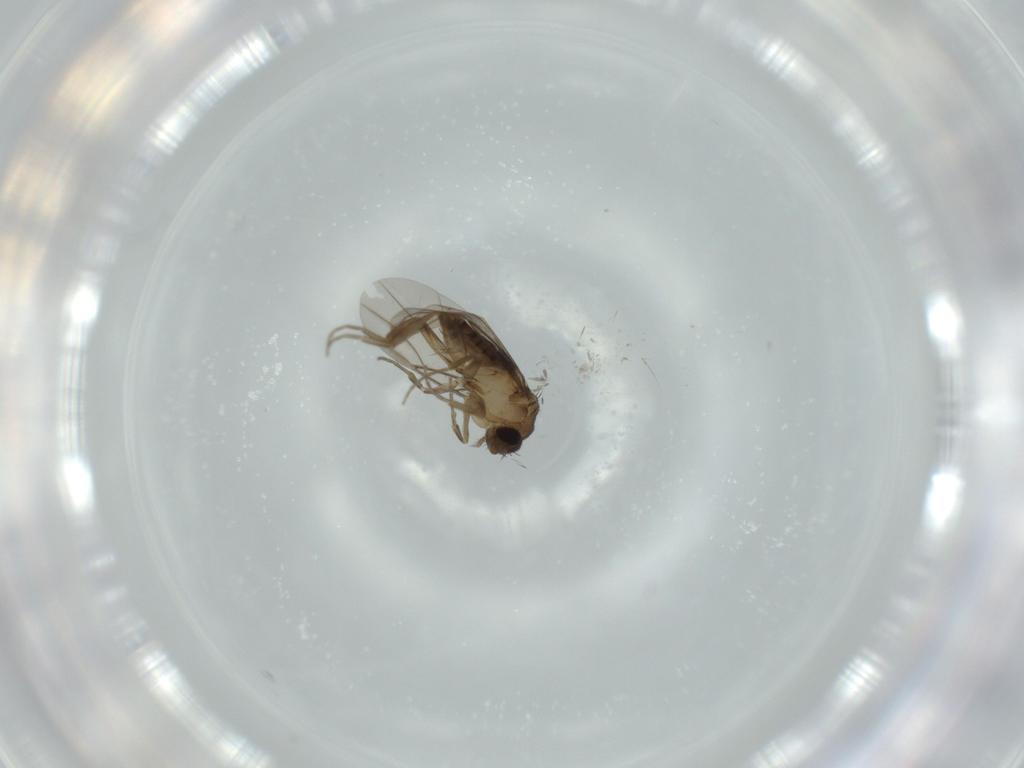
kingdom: Animalia
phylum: Arthropoda
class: Insecta
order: Diptera
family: Phoridae
